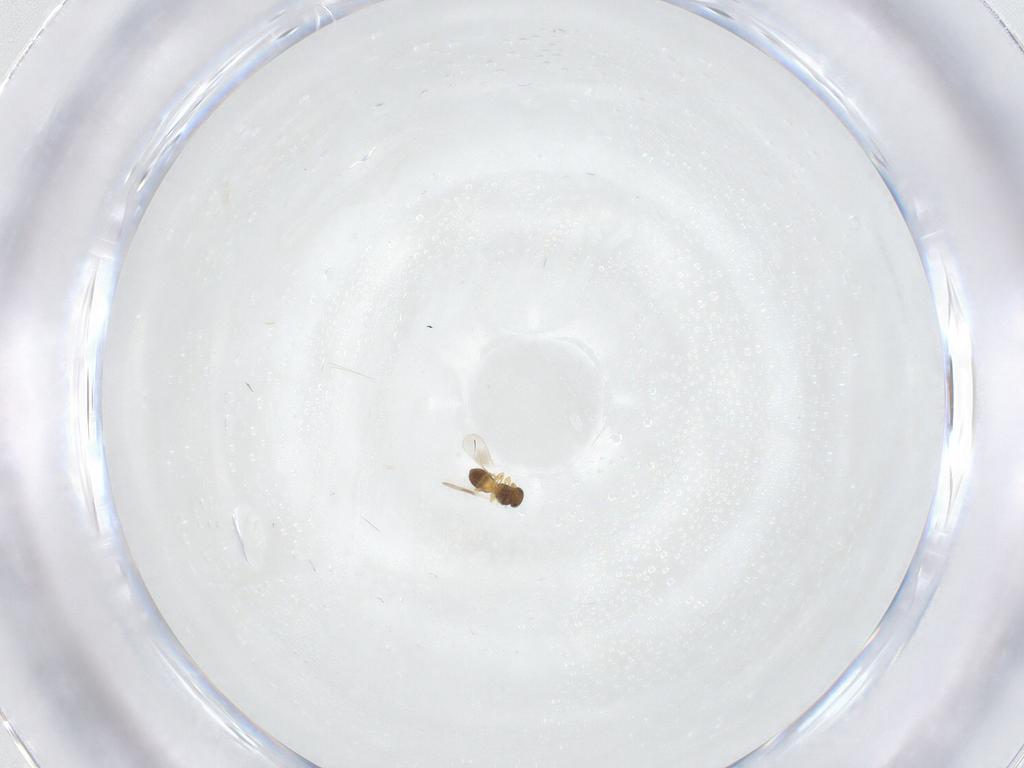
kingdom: Animalia
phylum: Arthropoda
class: Insecta
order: Hymenoptera
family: Platygastridae
